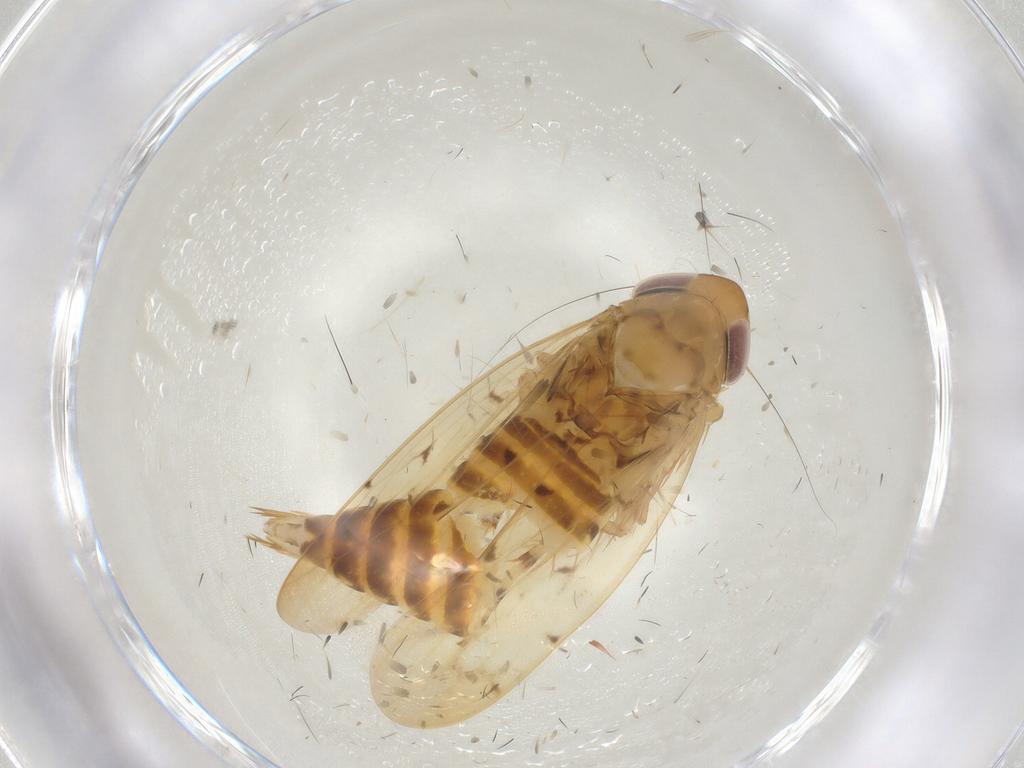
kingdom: Animalia
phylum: Arthropoda
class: Insecta
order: Hemiptera
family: Cicadellidae
